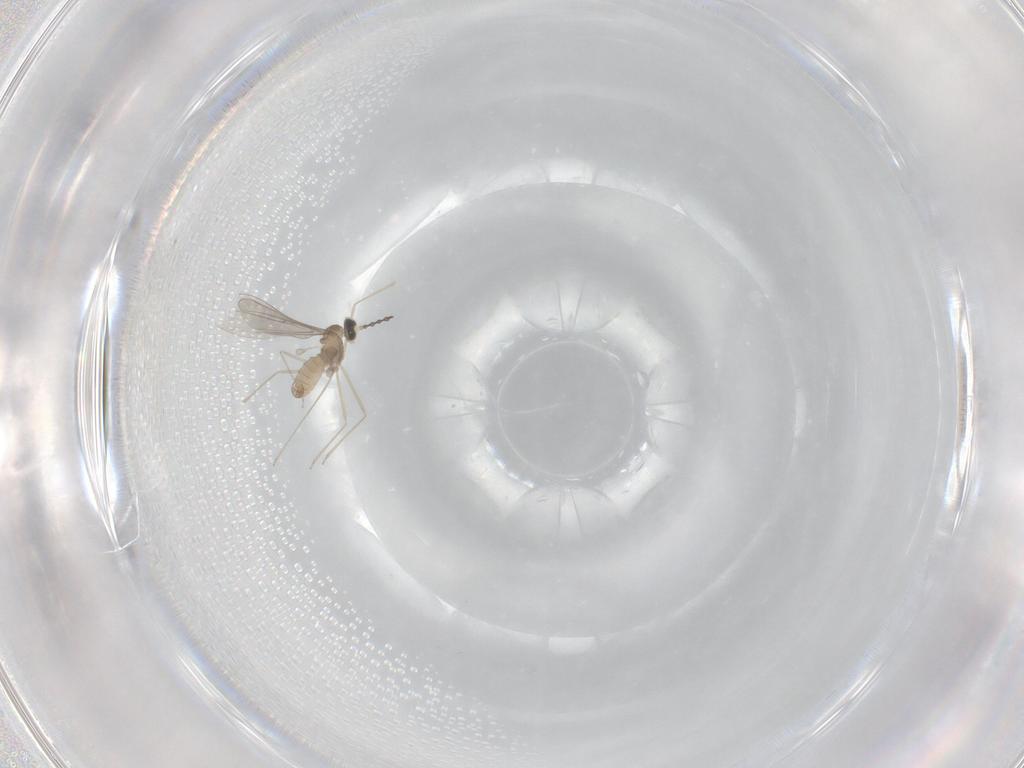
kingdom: Animalia
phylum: Arthropoda
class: Insecta
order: Diptera
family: Cecidomyiidae
